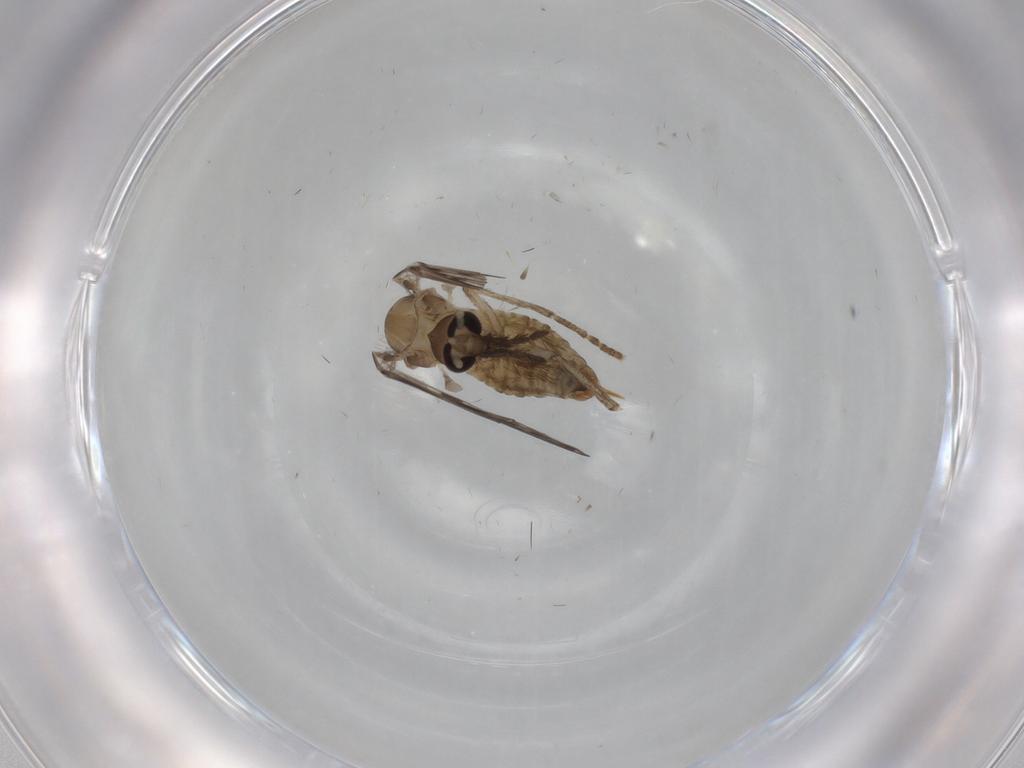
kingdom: Animalia
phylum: Arthropoda
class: Insecta
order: Diptera
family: Psychodidae
